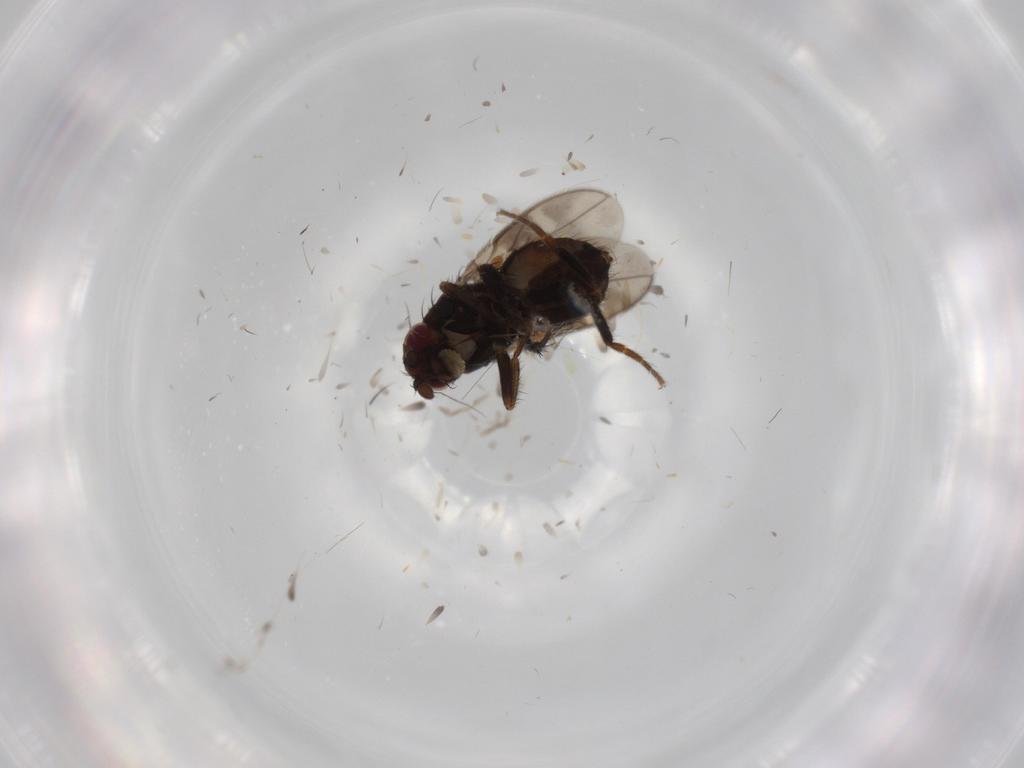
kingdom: Animalia
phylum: Arthropoda
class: Insecta
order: Diptera
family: Sphaeroceridae
